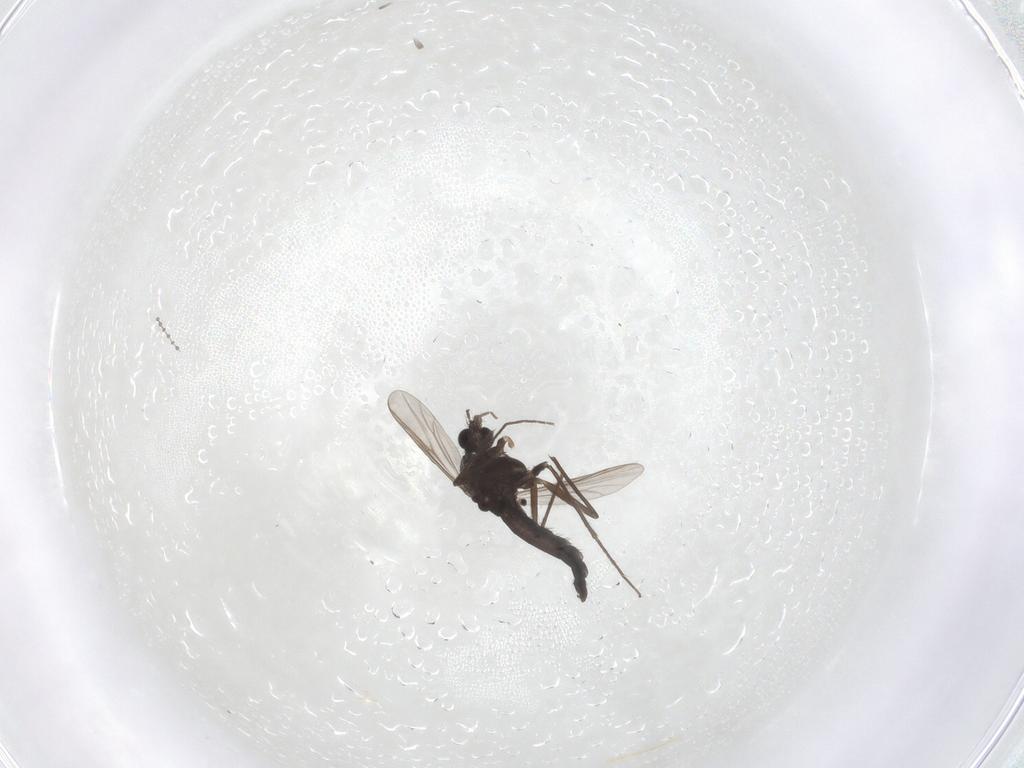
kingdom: Animalia
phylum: Arthropoda
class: Insecta
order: Diptera
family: Chironomidae
